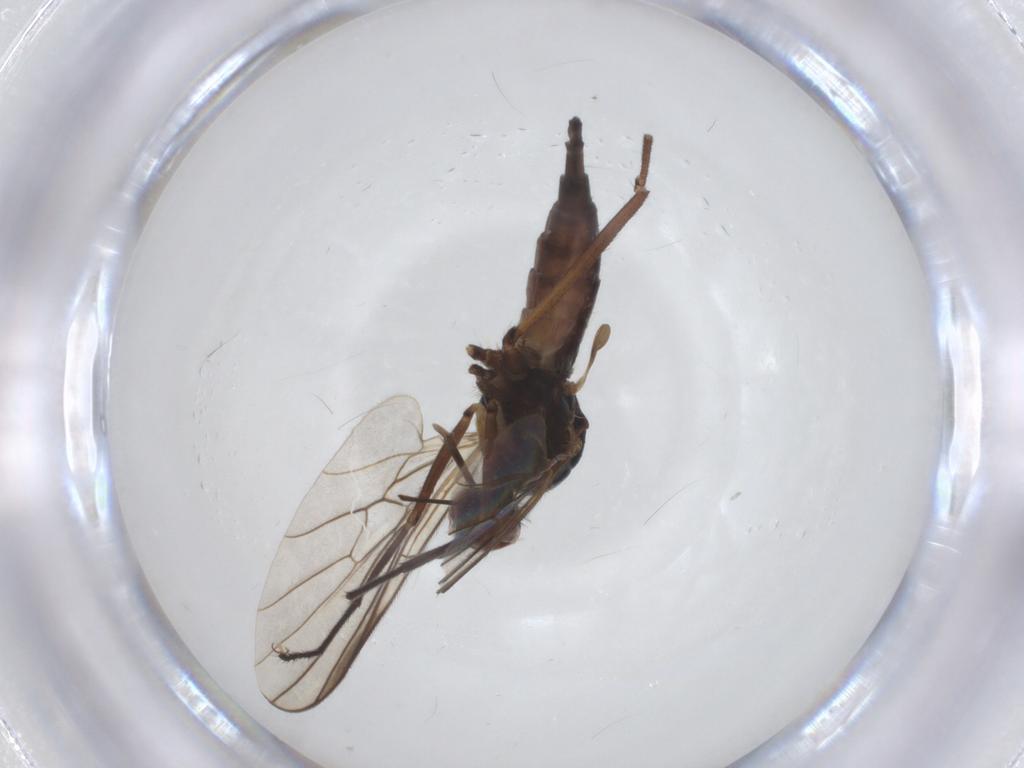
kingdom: Animalia
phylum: Arthropoda
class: Insecta
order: Diptera
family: Empididae
